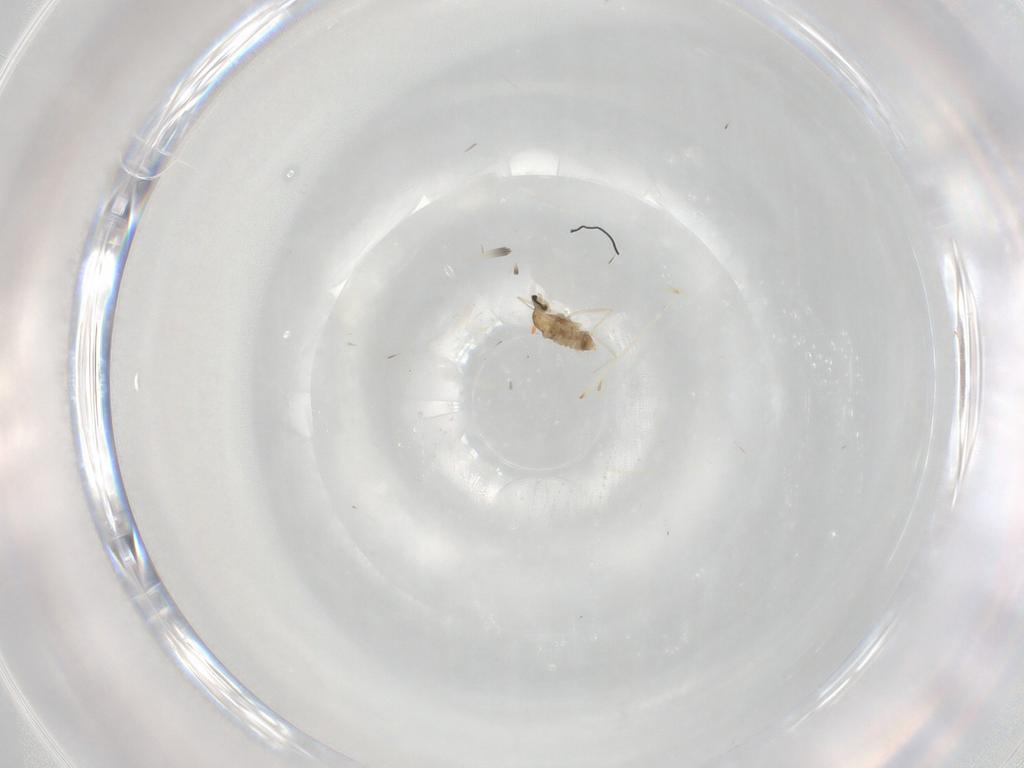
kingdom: Animalia
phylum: Arthropoda
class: Insecta
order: Diptera
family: Cecidomyiidae
